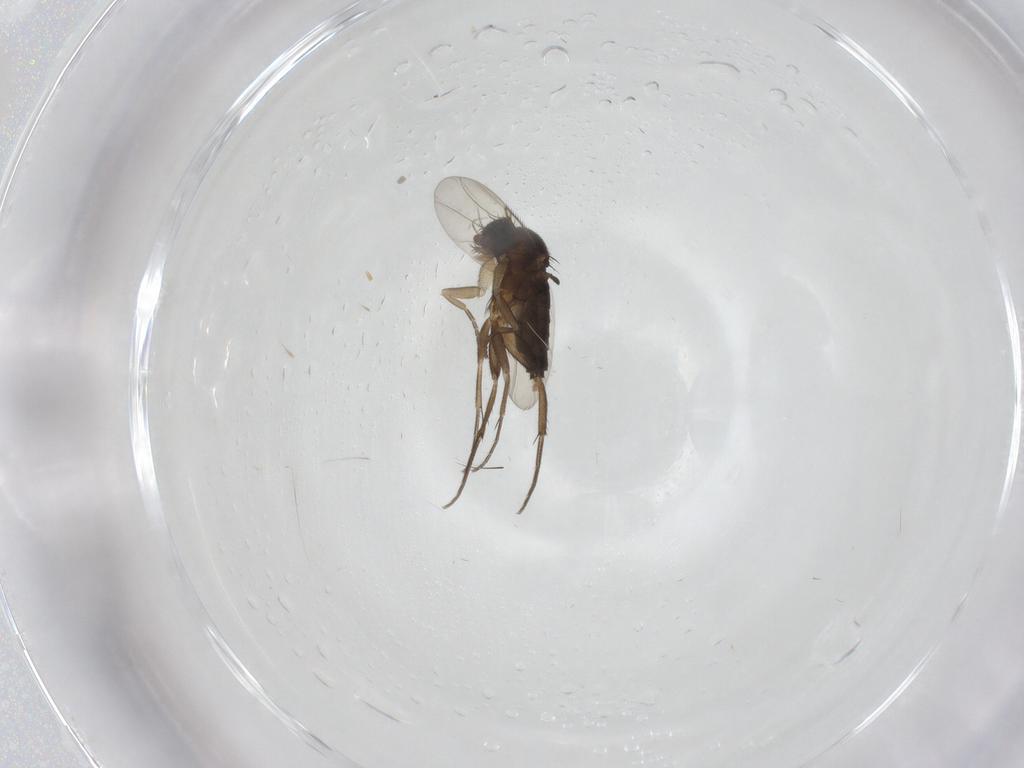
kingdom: Animalia
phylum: Arthropoda
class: Insecta
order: Diptera
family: Phoridae
